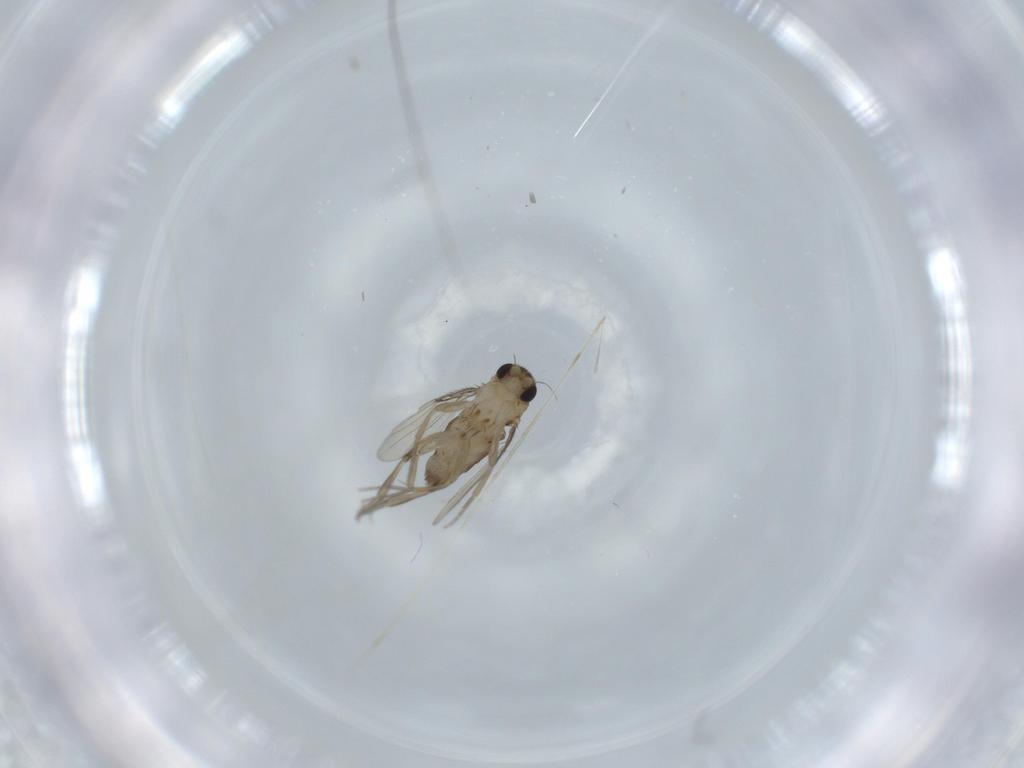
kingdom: Animalia
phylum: Arthropoda
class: Insecta
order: Diptera
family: Phoridae
